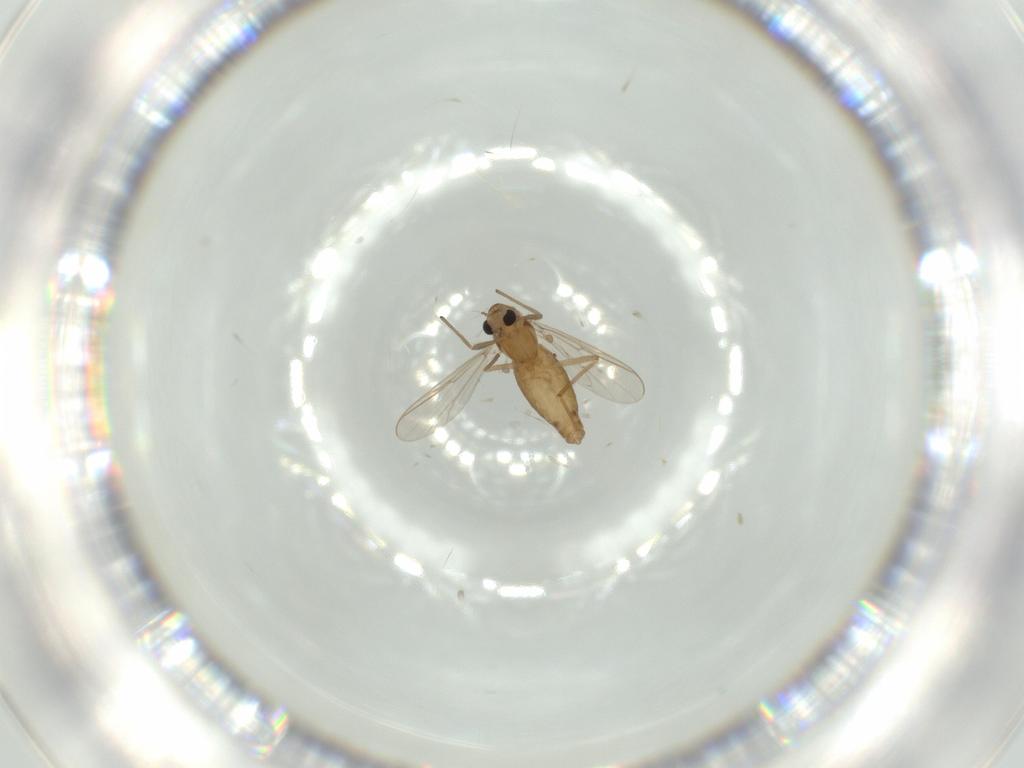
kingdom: Animalia
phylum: Arthropoda
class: Insecta
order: Diptera
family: Chironomidae
